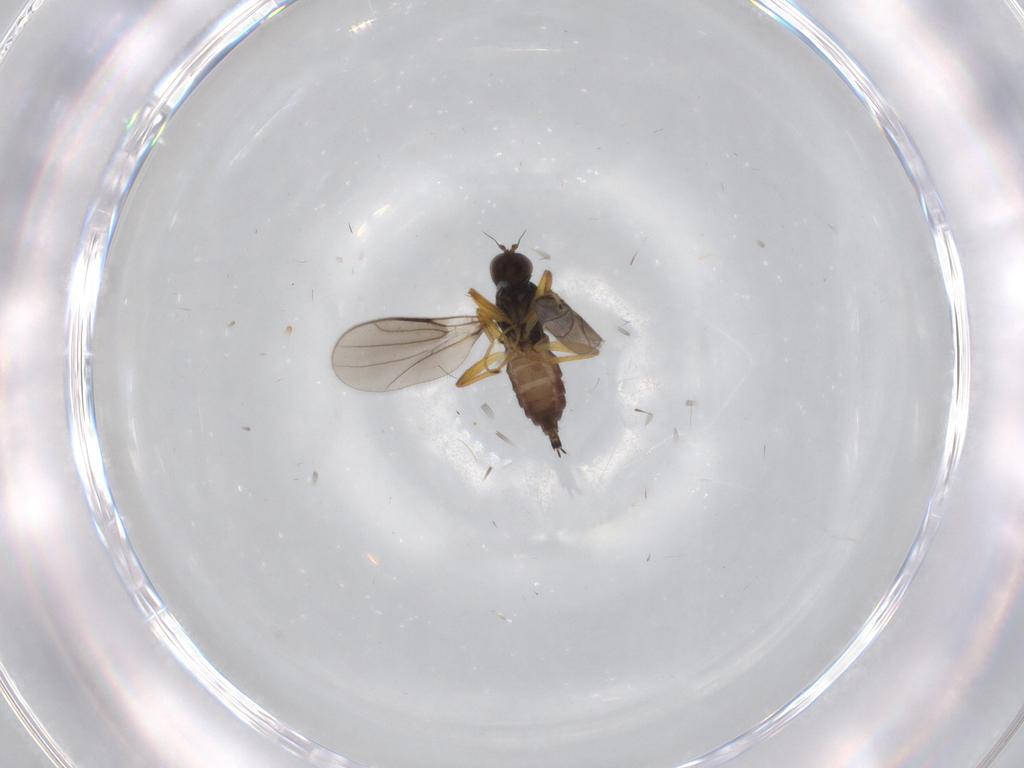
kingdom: Animalia
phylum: Arthropoda
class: Insecta
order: Diptera
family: Hybotidae
